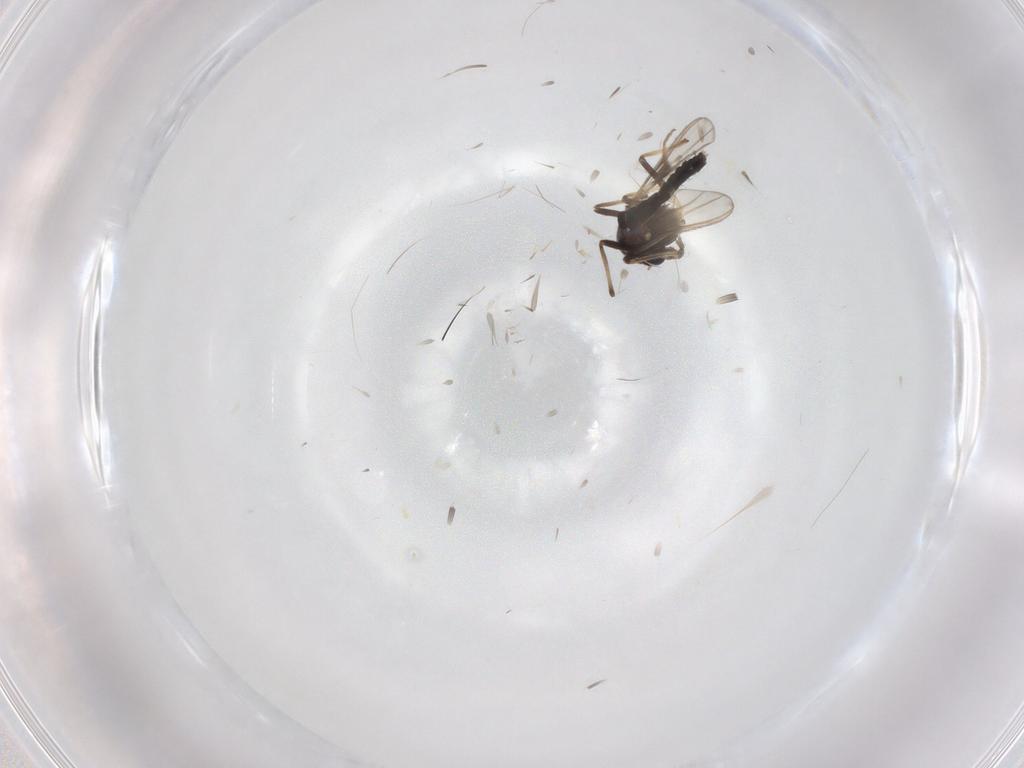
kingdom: Animalia
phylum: Arthropoda
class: Insecta
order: Diptera
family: Chironomidae
